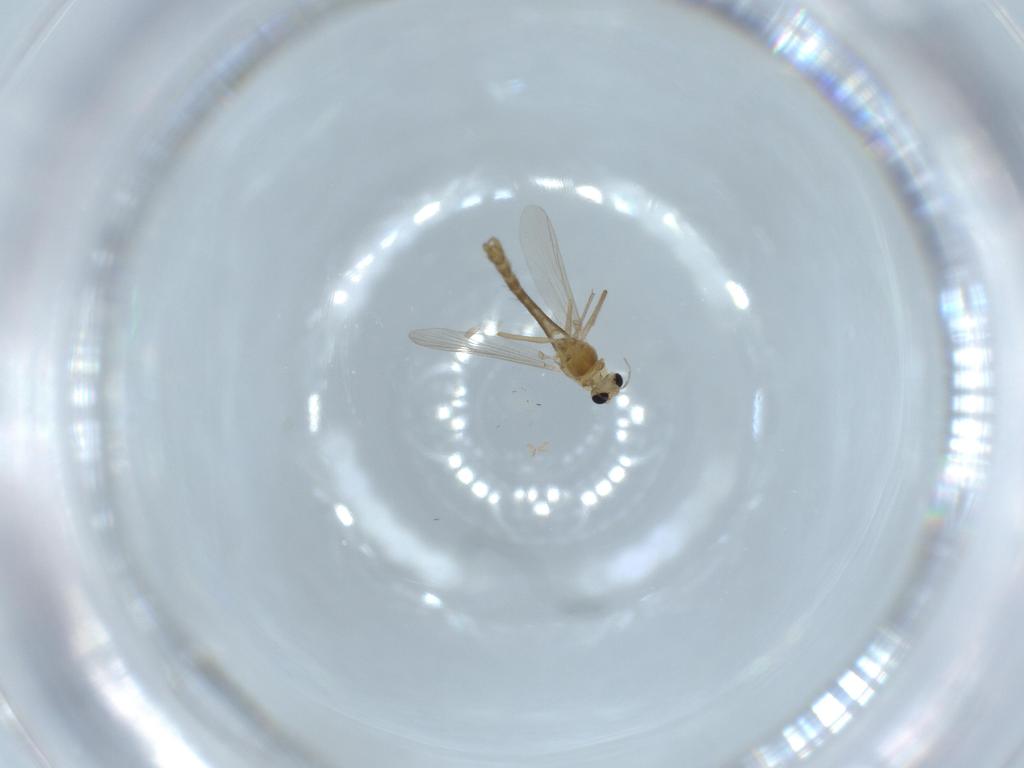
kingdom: Animalia
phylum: Arthropoda
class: Insecta
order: Diptera
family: Chironomidae
